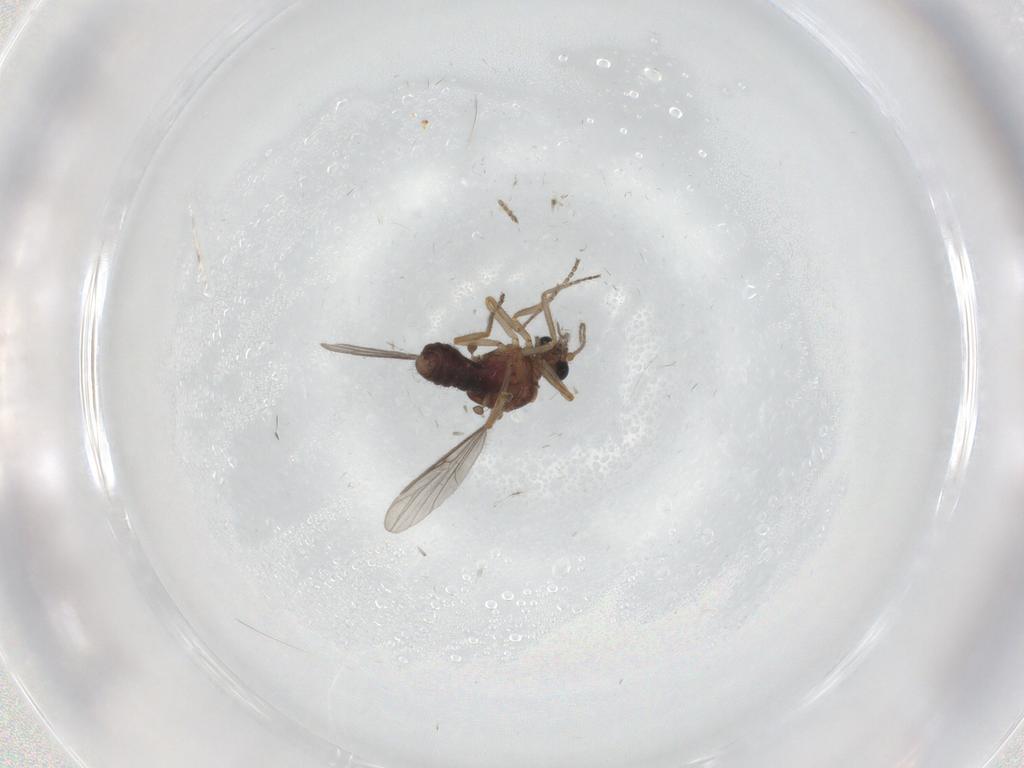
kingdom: Animalia
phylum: Arthropoda
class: Insecta
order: Diptera
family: Ceratopogonidae
